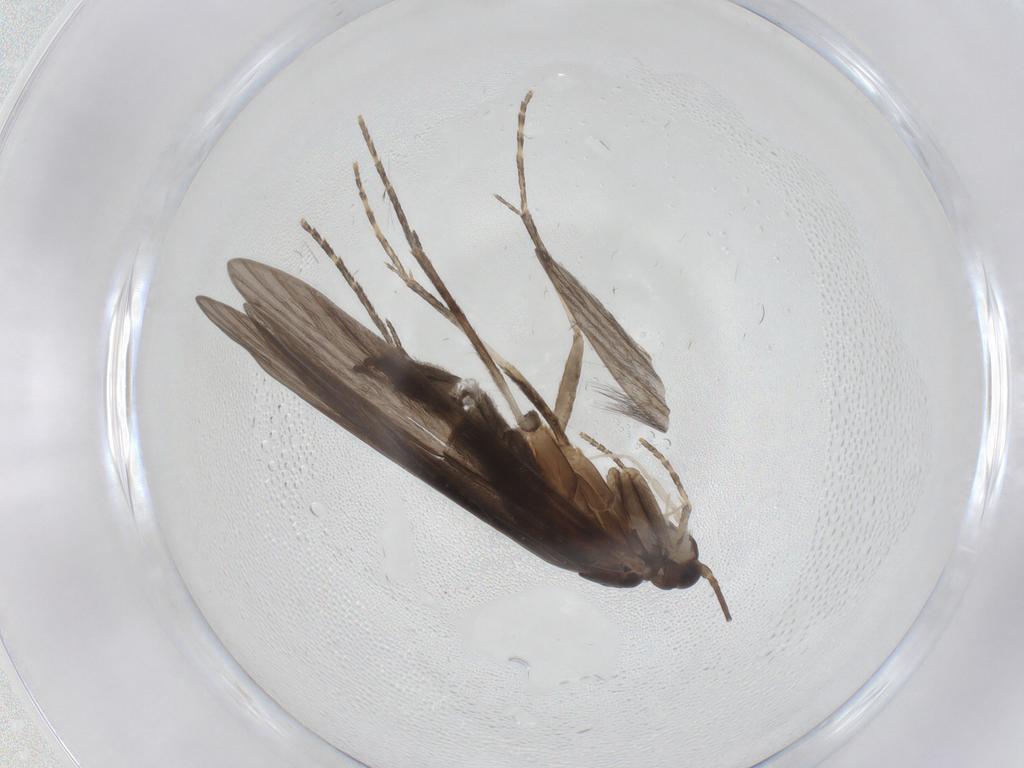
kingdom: Animalia
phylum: Arthropoda
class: Insecta
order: Trichoptera
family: Xiphocentronidae
